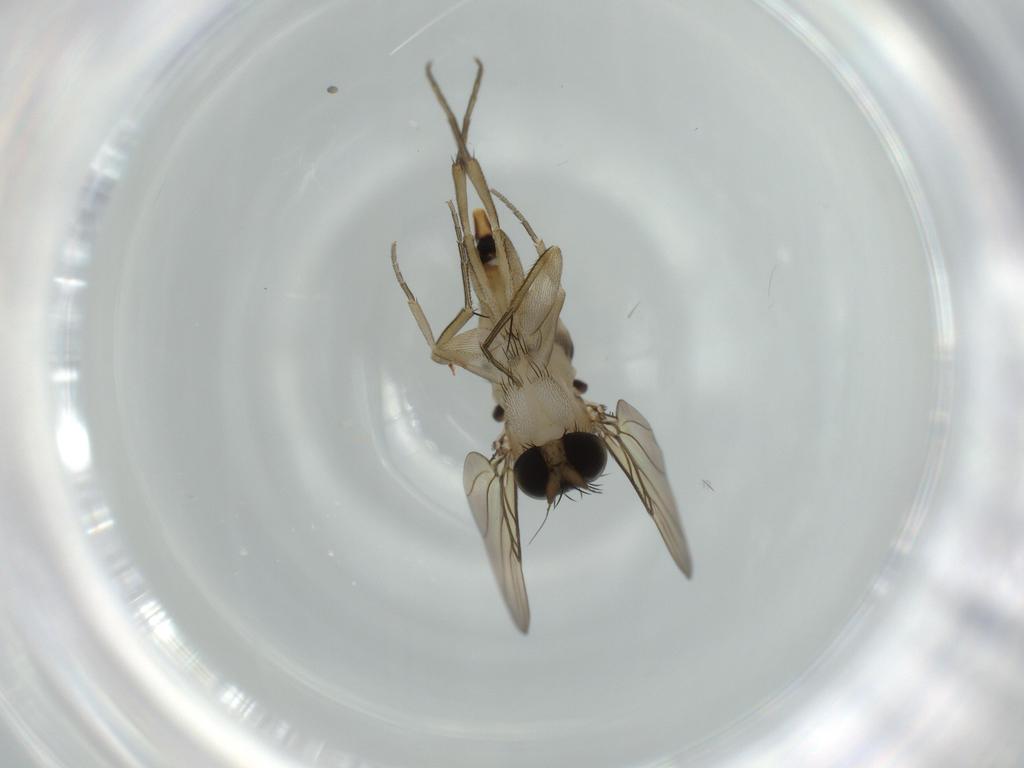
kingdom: Animalia
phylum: Arthropoda
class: Insecta
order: Diptera
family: Phoridae
